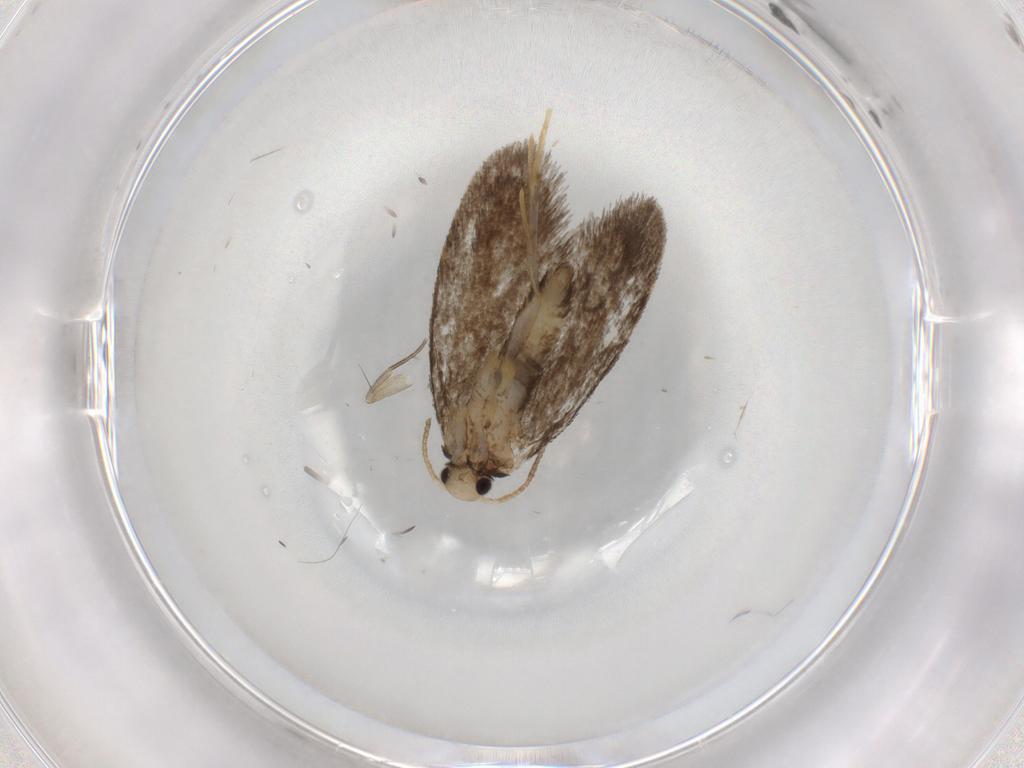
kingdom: Animalia
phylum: Arthropoda
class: Insecta
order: Lepidoptera
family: Psychidae
